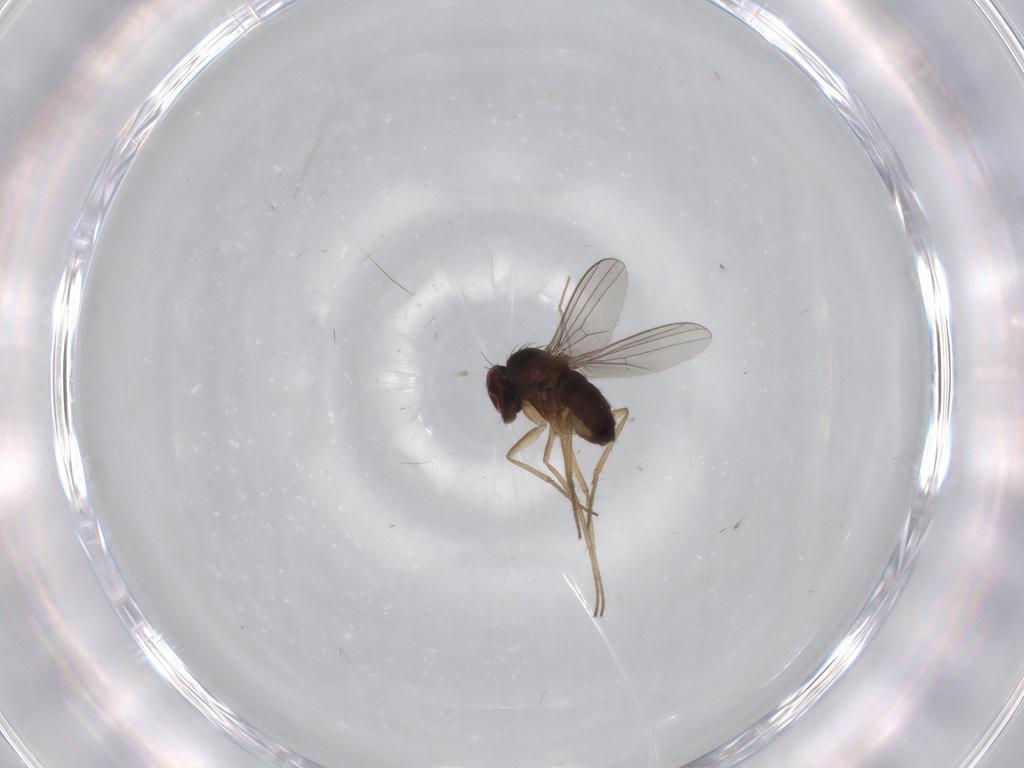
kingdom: Animalia
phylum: Arthropoda
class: Insecta
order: Diptera
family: Dolichopodidae
